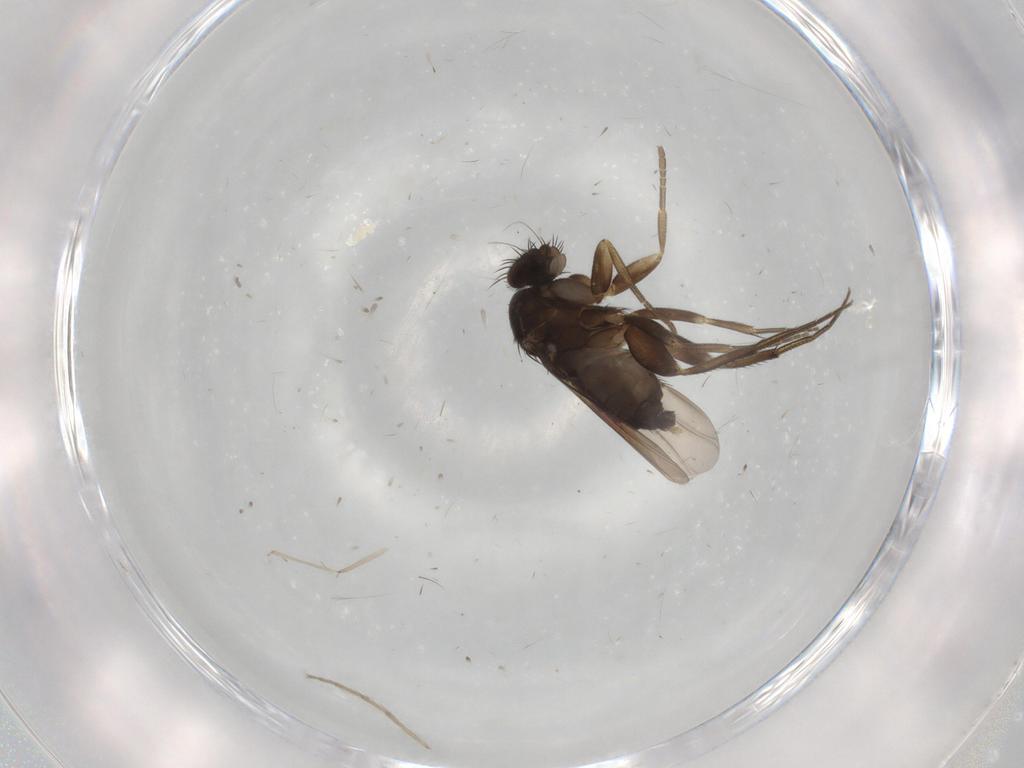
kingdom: Animalia
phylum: Arthropoda
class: Insecta
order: Diptera
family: Phoridae
